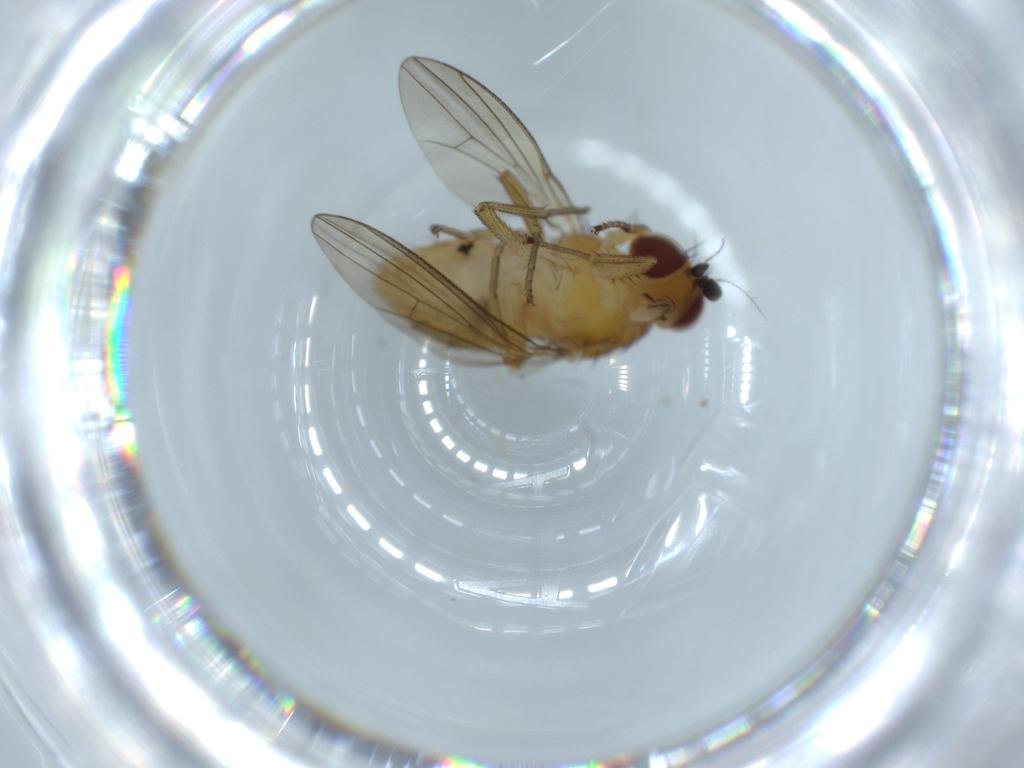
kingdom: Animalia
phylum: Arthropoda
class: Insecta
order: Diptera
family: Lauxaniidae
